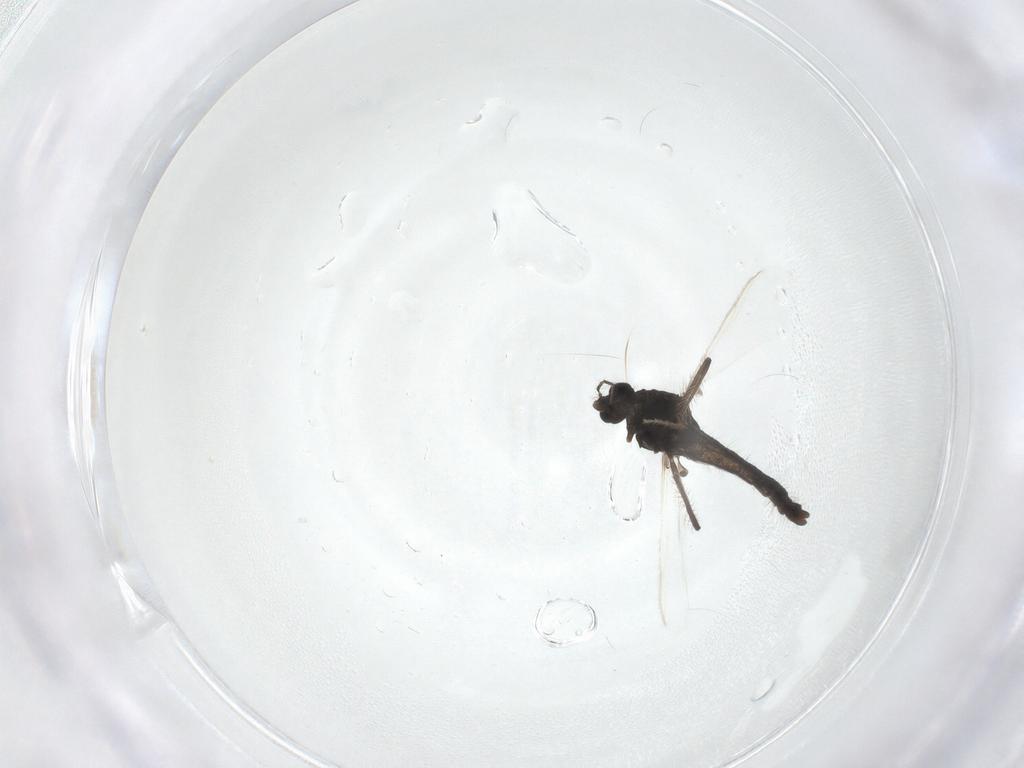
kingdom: Animalia
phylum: Arthropoda
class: Insecta
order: Diptera
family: Chironomidae
